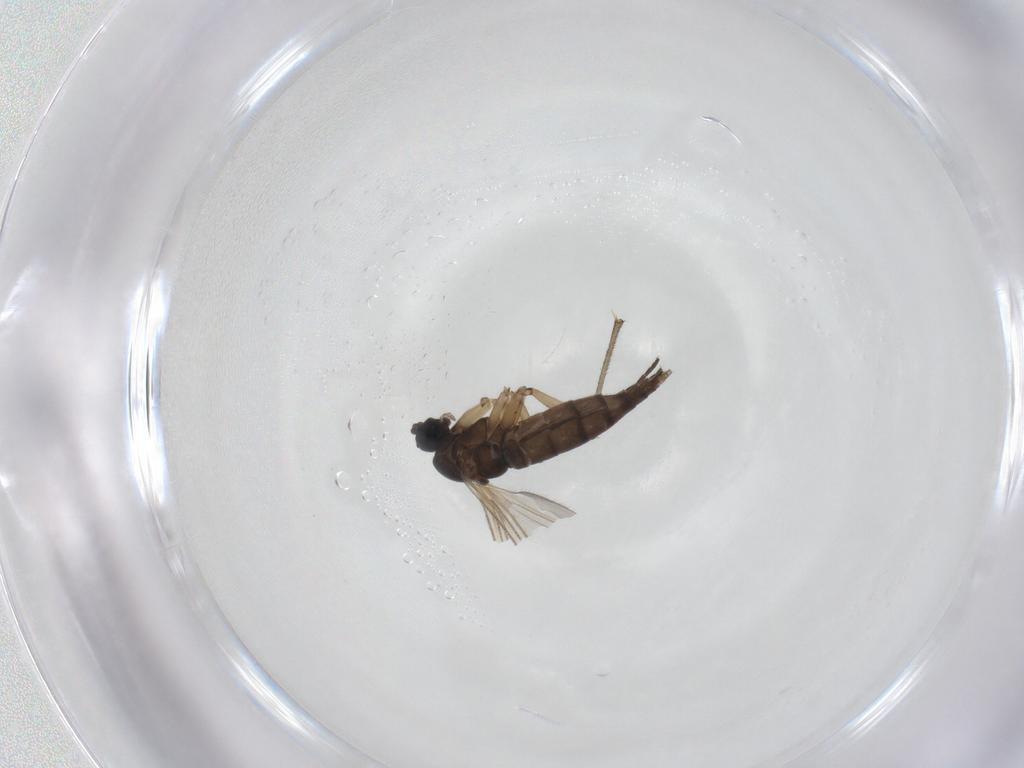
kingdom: Animalia
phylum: Arthropoda
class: Insecta
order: Diptera
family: Sciaridae
